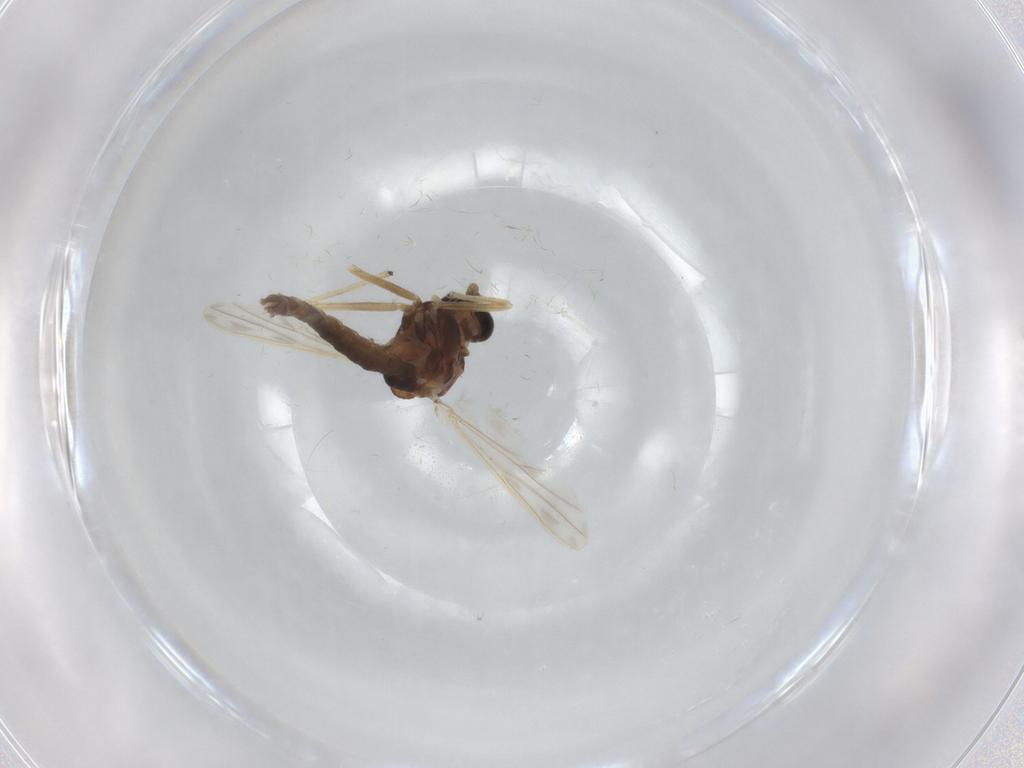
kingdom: Animalia
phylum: Arthropoda
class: Insecta
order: Diptera
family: Chironomidae
